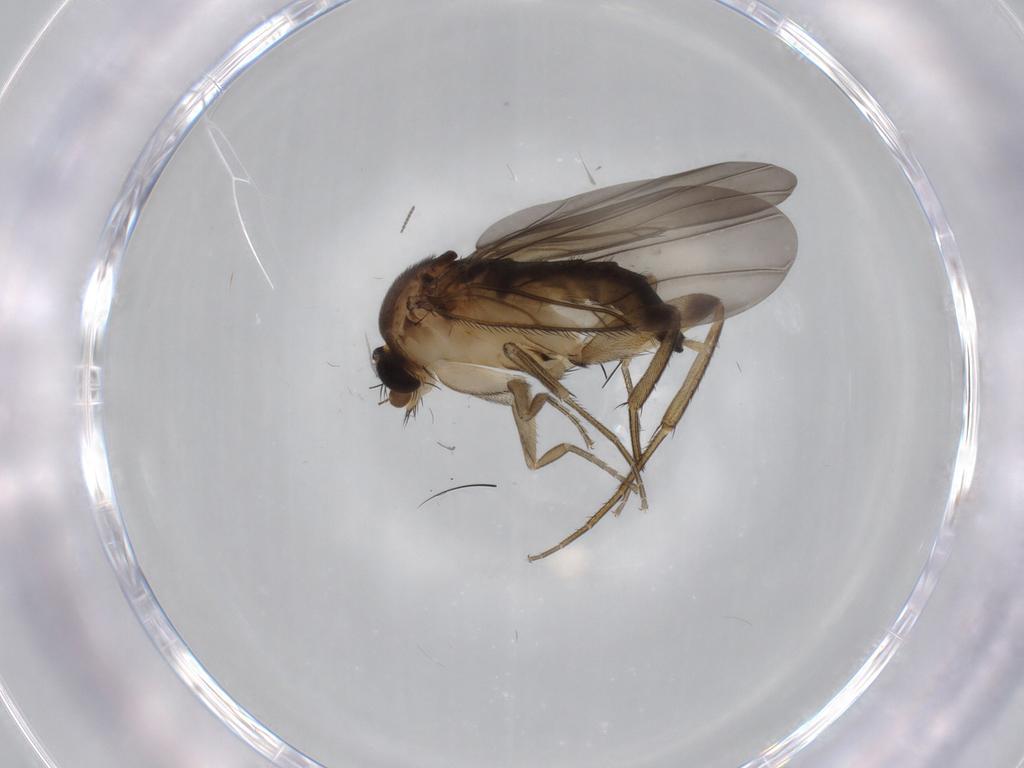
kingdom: Animalia
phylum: Arthropoda
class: Insecta
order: Diptera
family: Phoridae
